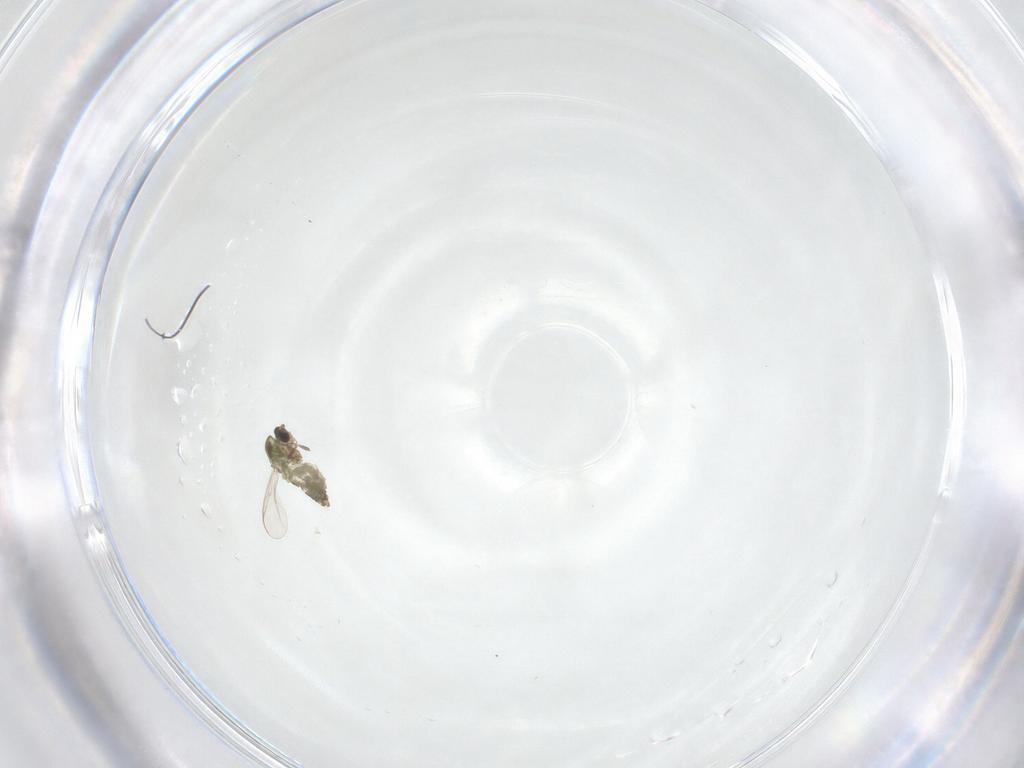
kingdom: Animalia
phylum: Arthropoda
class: Insecta
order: Diptera
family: Chironomidae
